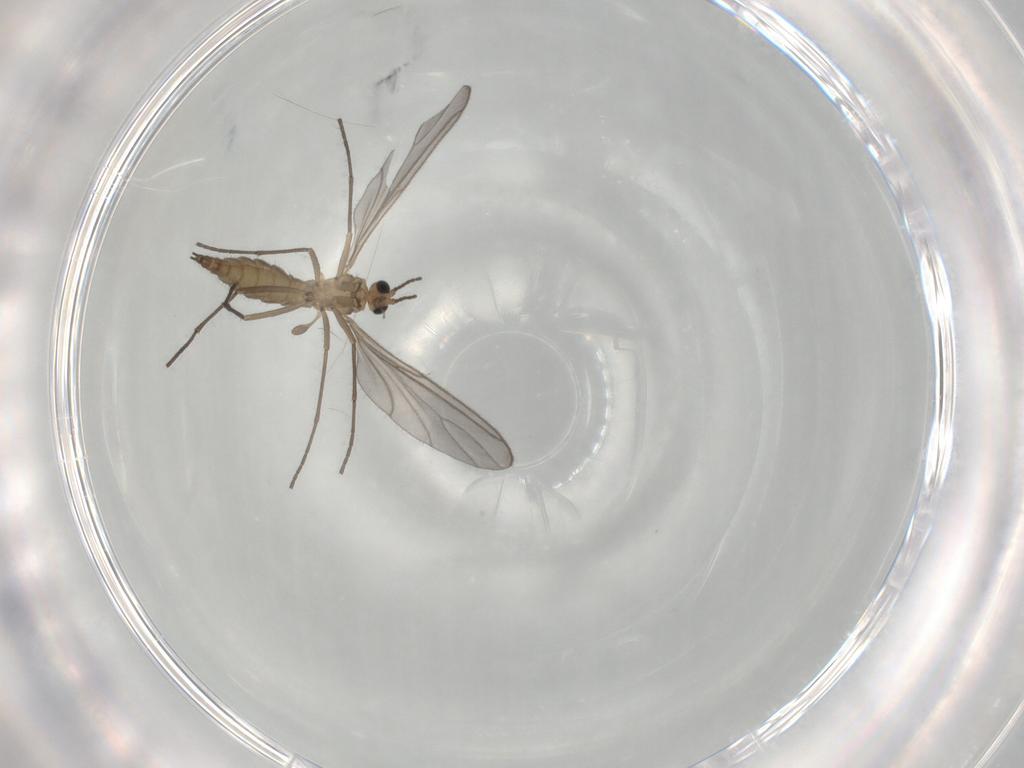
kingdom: Animalia
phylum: Arthropoda
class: Insecta
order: Diptera
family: Sciaridae
